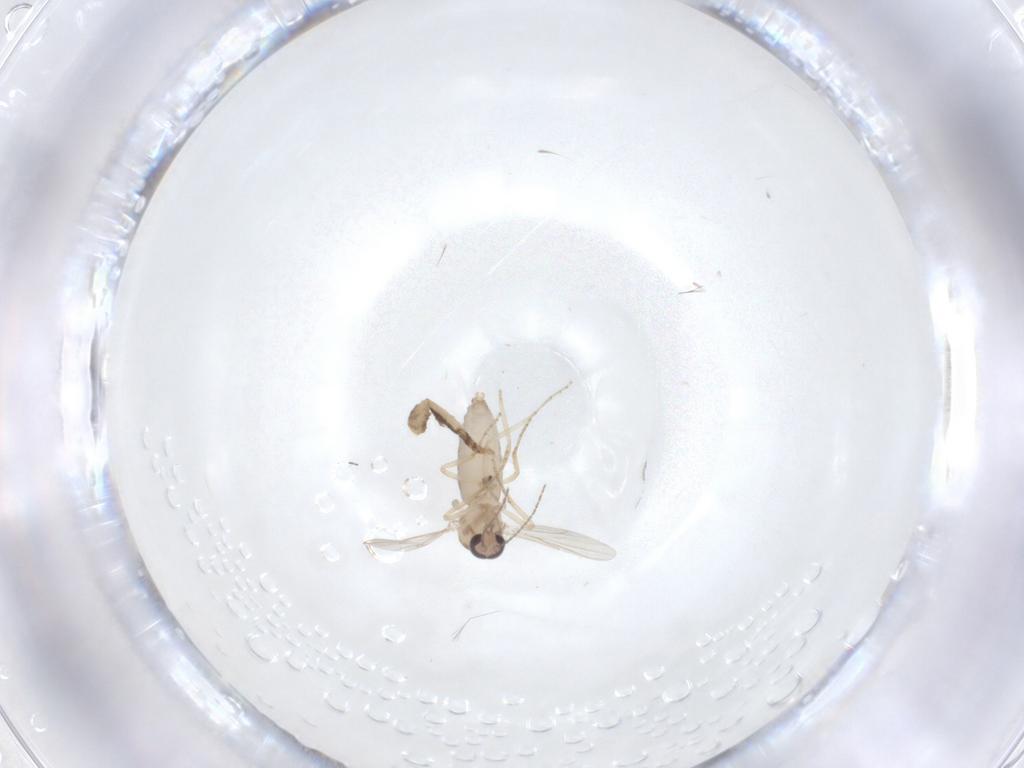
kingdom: Animalia
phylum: Arthropoda
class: Insecta
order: Diptera
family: Ceratopogonidae
